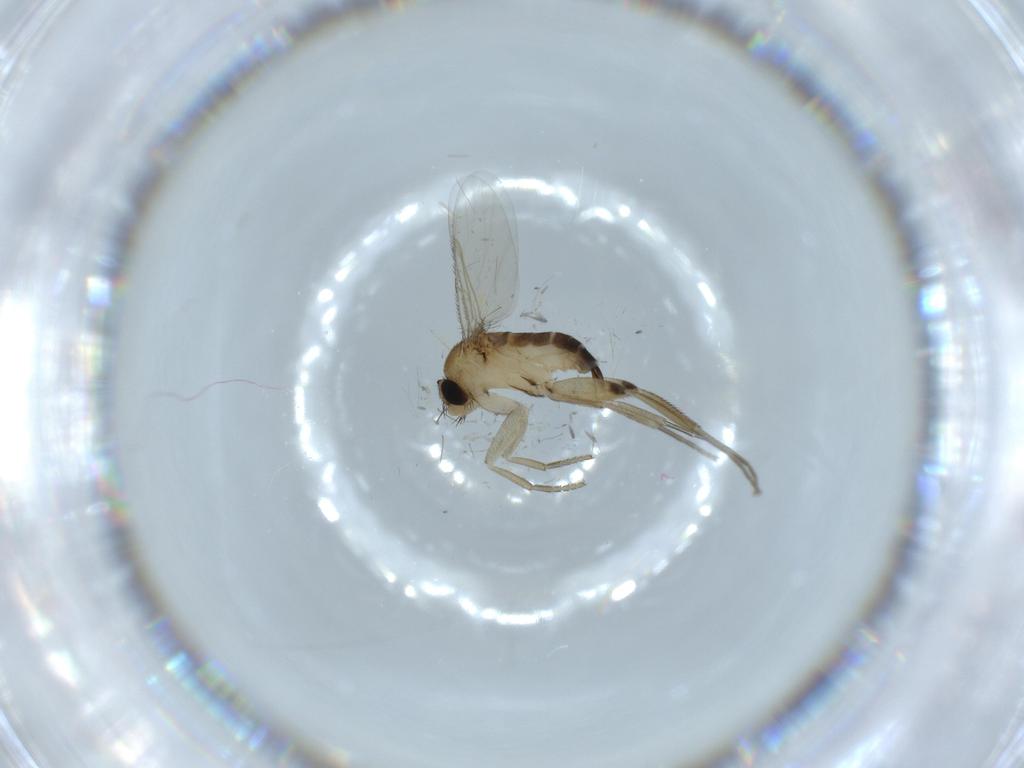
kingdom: Animalia
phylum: Arthropoda
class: Insecta
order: Diptera
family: Phoridae
